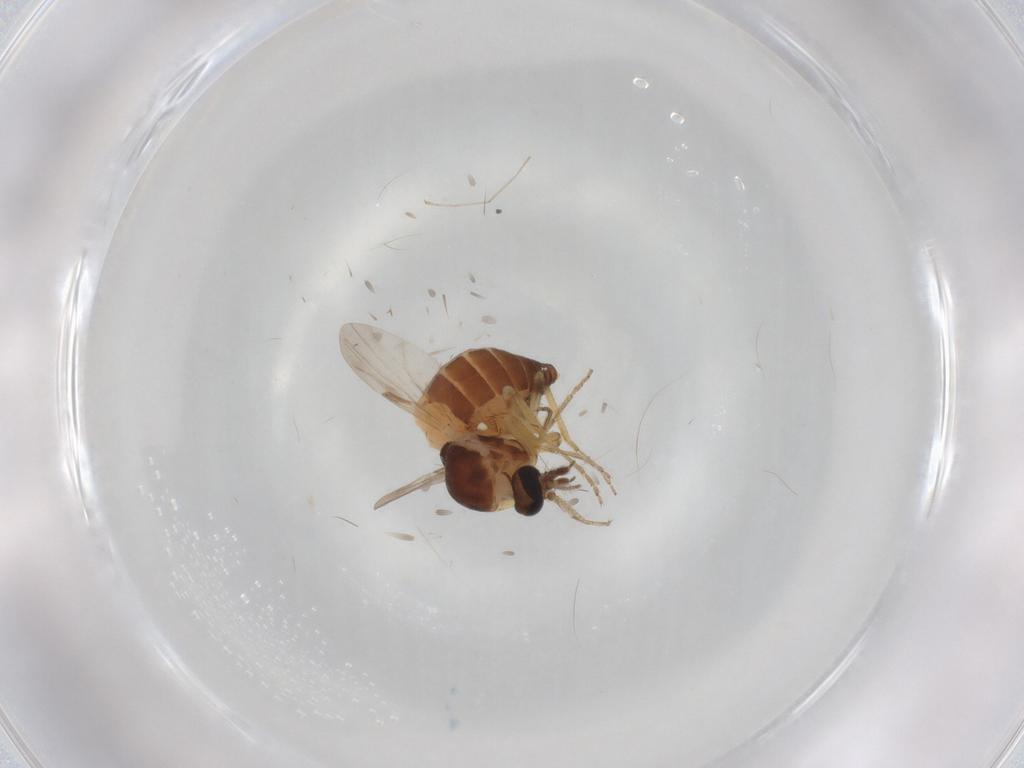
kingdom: Animalia
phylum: Arthropoda
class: Insecta
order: Diptera
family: Ceratopogonidae
